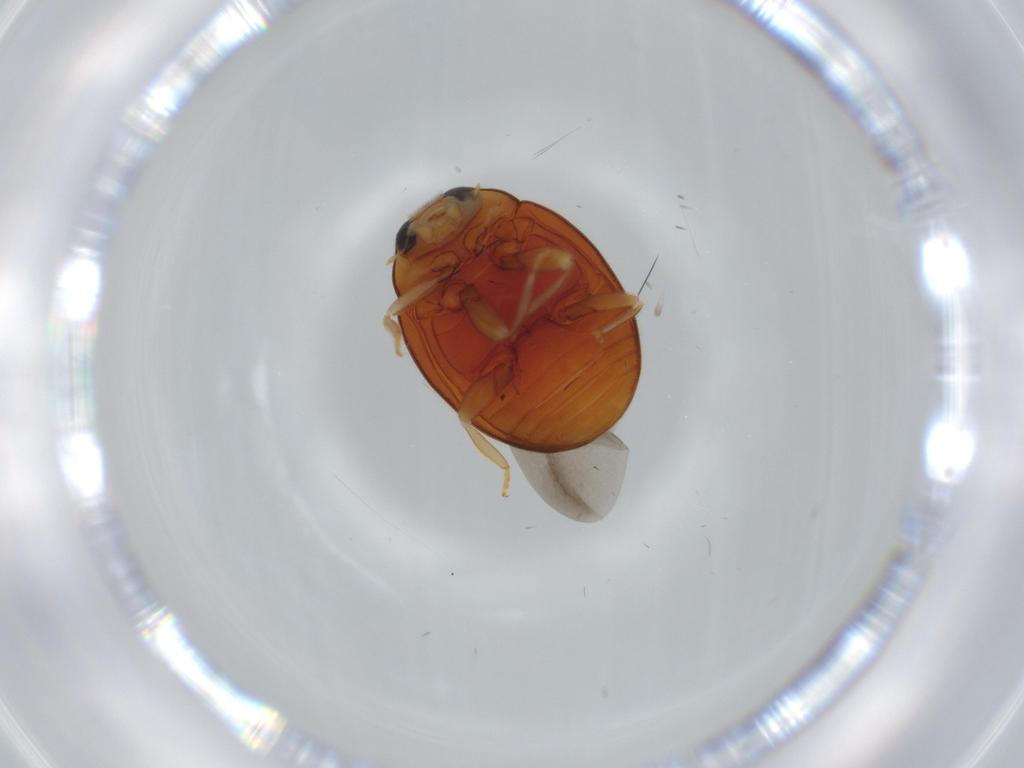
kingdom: Animalia
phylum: Arthropoda
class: Insecta
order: Coleoptera
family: Coccinellidae
